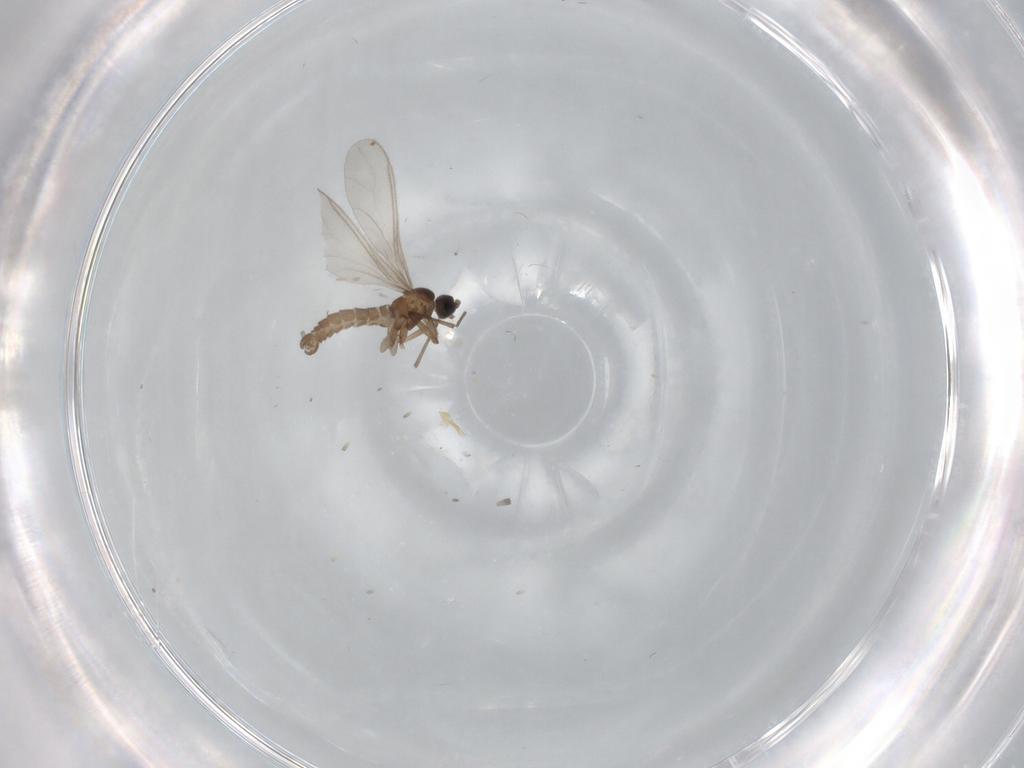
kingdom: Animalia
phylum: Arthropoda
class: Insecta
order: Diptera
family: Sciaridae
